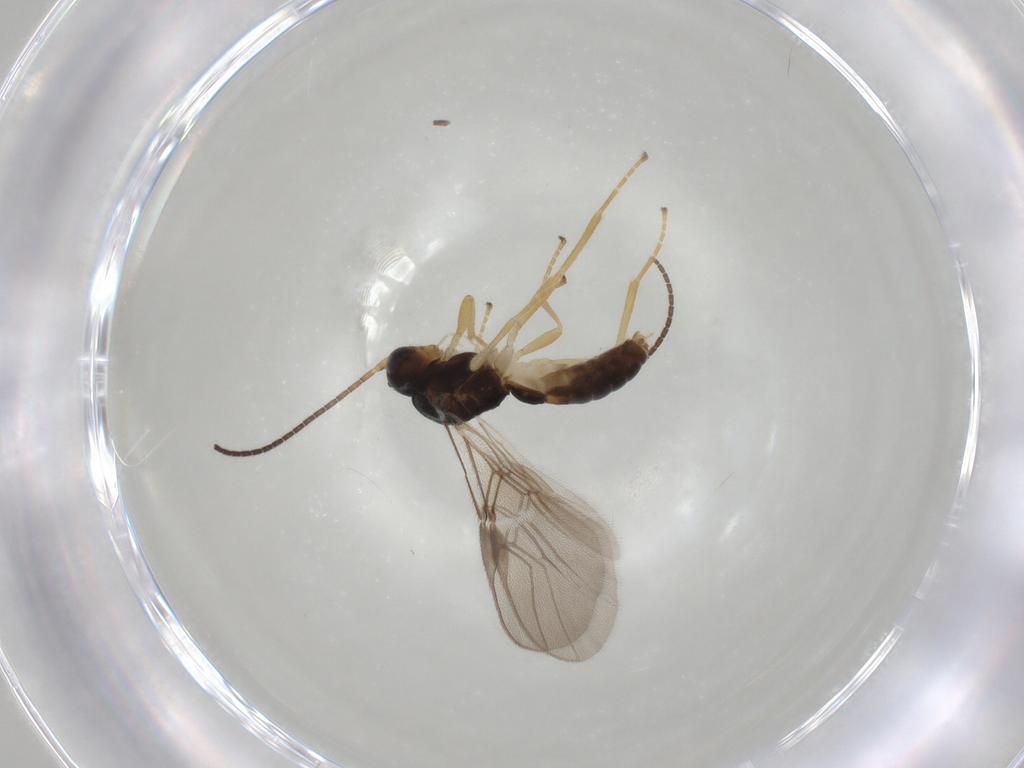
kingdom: Animalia
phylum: Arthropoda
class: Insecta
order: Hymenoptera
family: Braconidae
